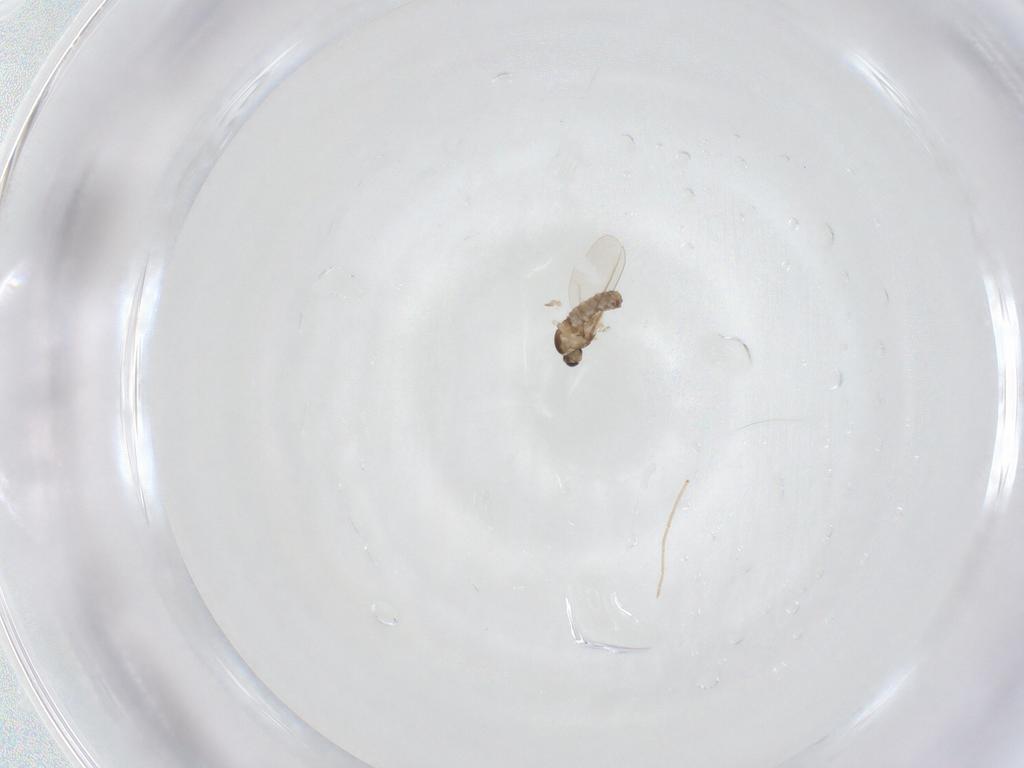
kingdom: Animalia
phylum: Arthropoda
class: Insecta
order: Diptera
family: Cecidomyiidae
